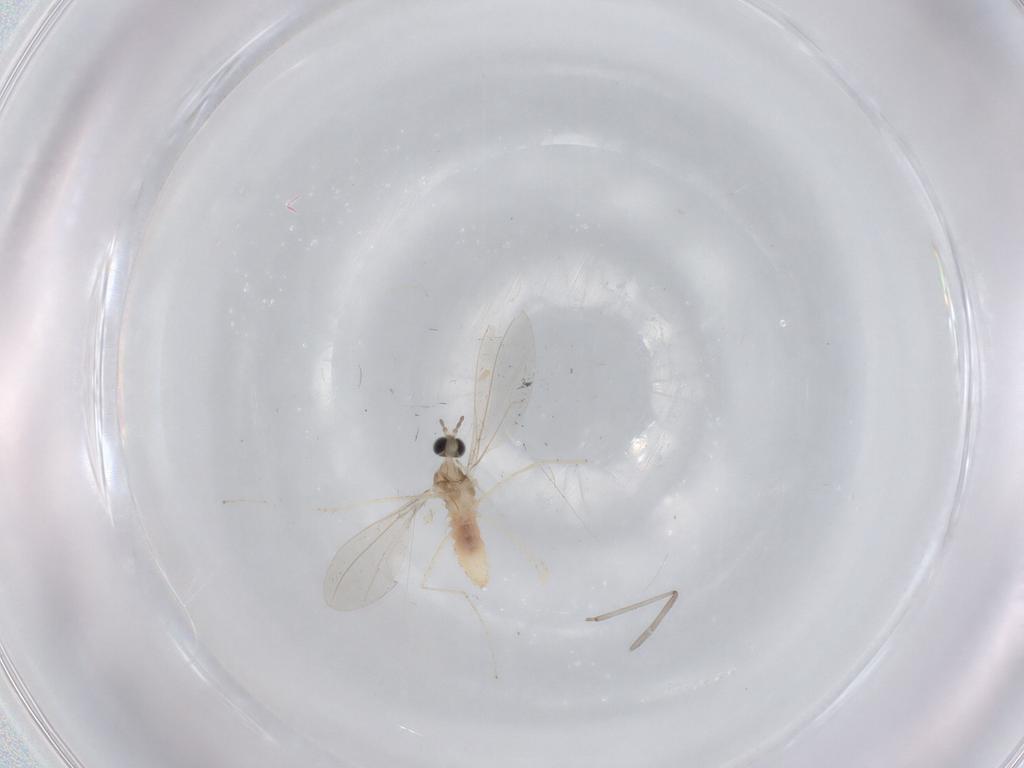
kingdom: Animalia
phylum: Arthropoda
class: Insecta
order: Diptera
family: Cecidomyiidae
